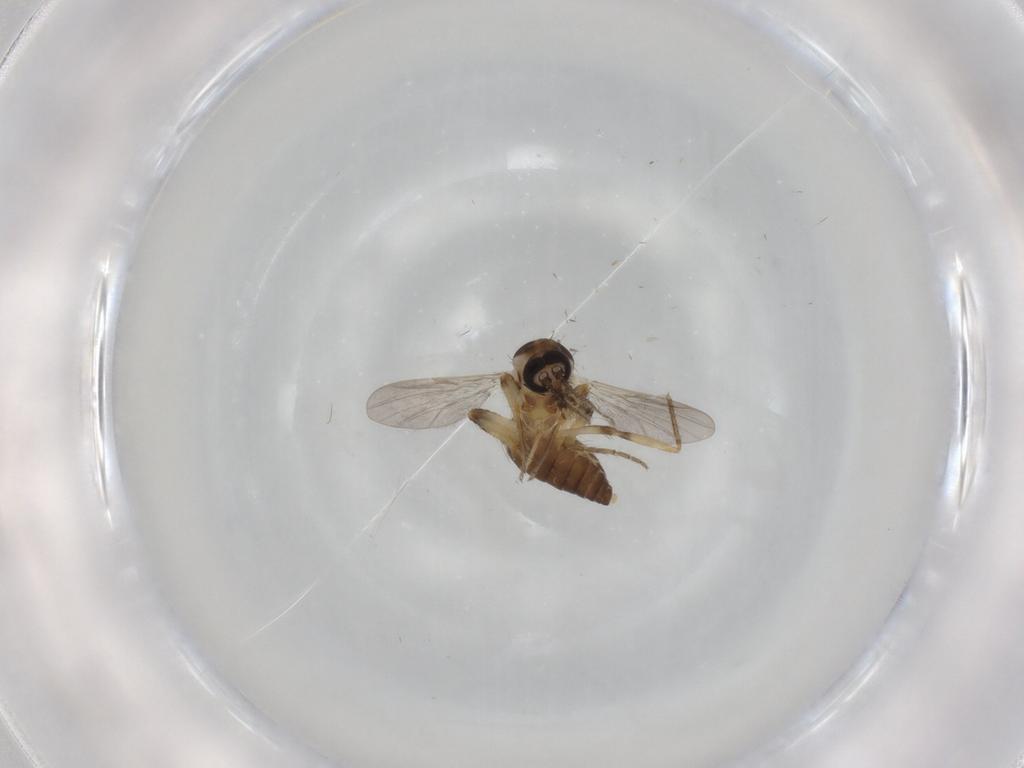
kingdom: Animalia
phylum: Arthropoda
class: Insecta
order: Diptera
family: Ceratopogonidae
